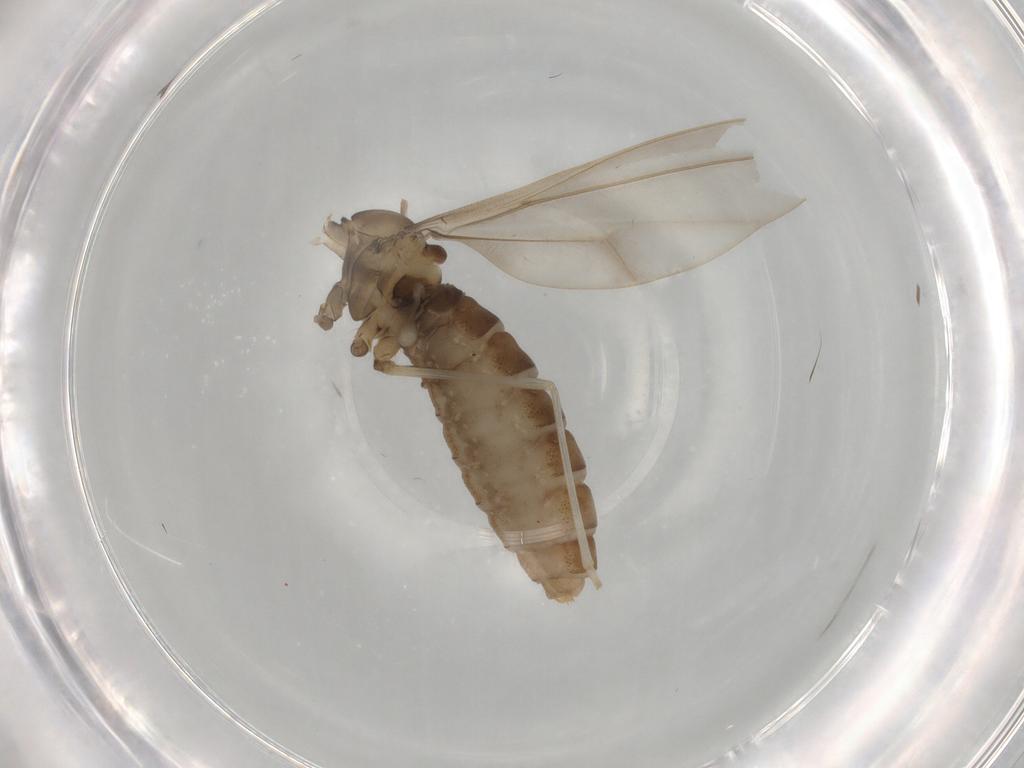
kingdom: Animalia
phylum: Arthropoda
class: Insecta
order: Diptera
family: Cecidomyiidae
